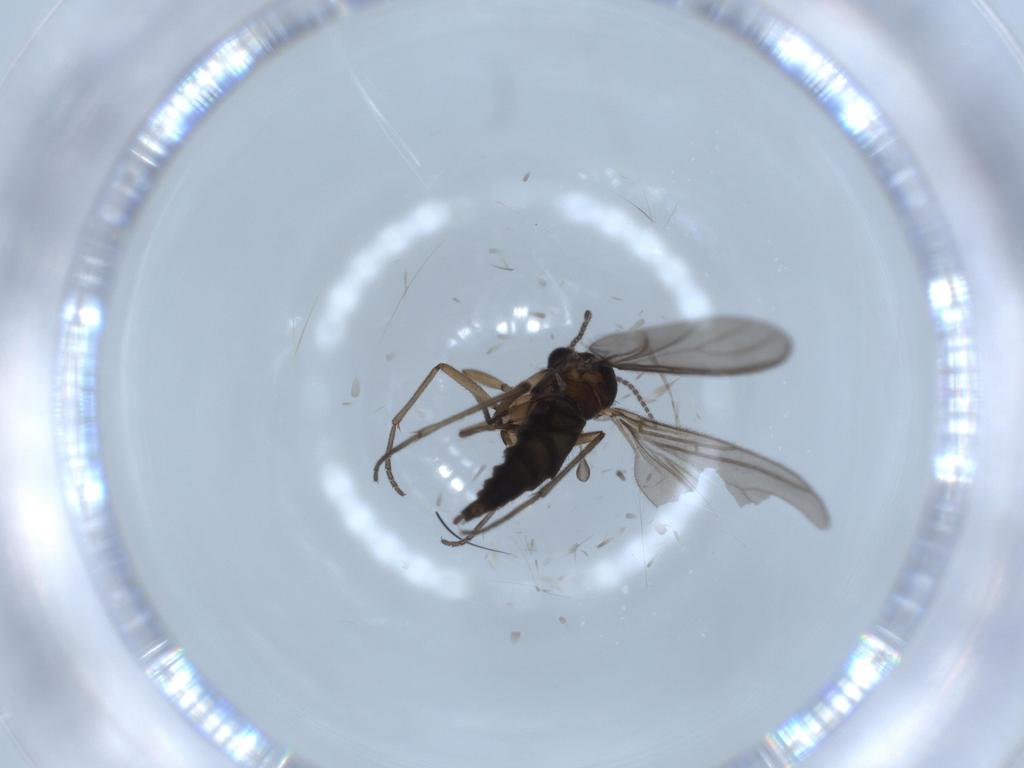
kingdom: Animalia
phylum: Arthropoda
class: Insecta
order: Diptera
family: Sciaridae
